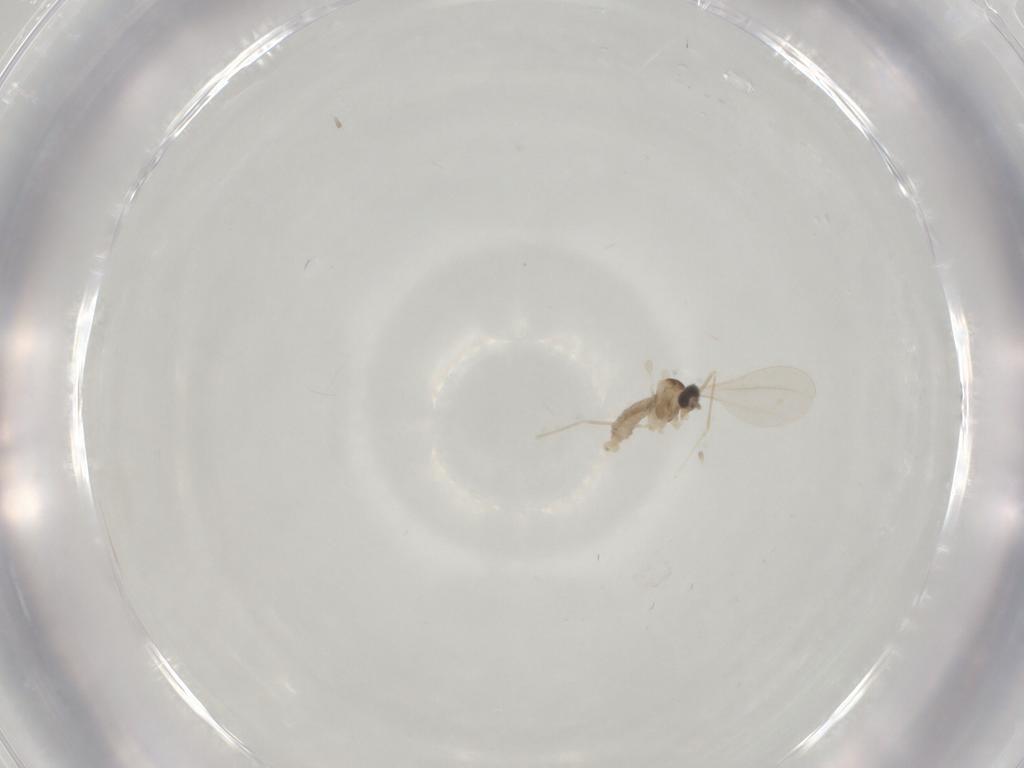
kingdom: Animalia
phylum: Arthropoda
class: Insecta
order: Diptera
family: Cecidomyiidae
